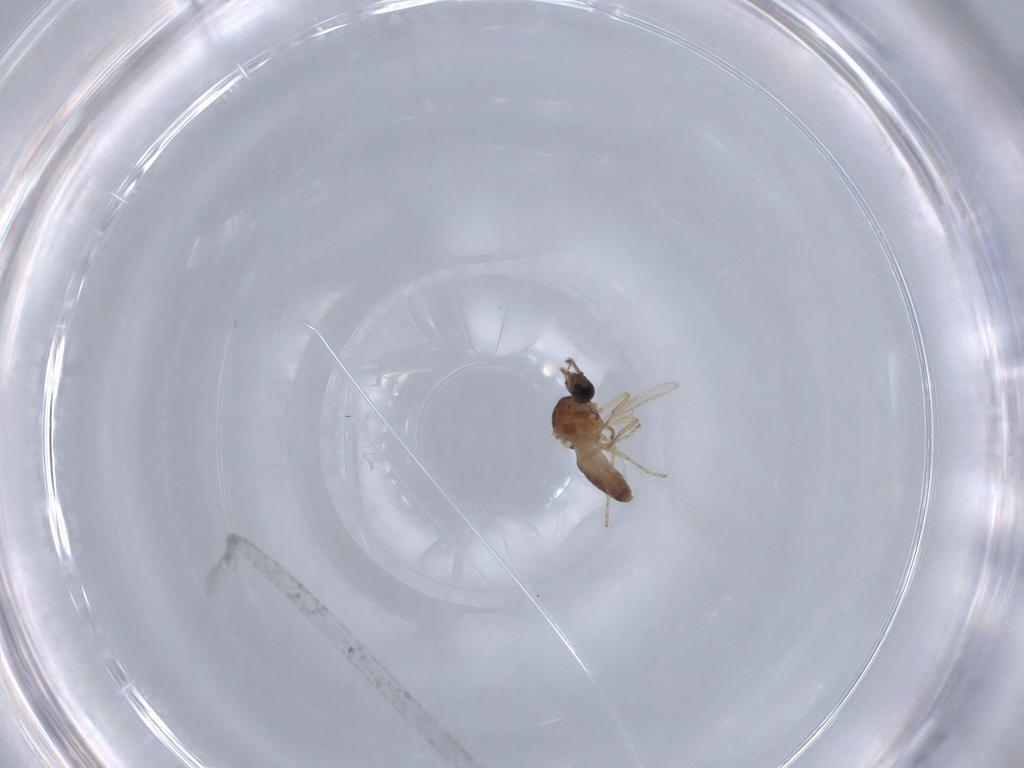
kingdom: Animalia
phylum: Arthropoda
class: Insecta
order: Diptera
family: Ceratopogonidae
